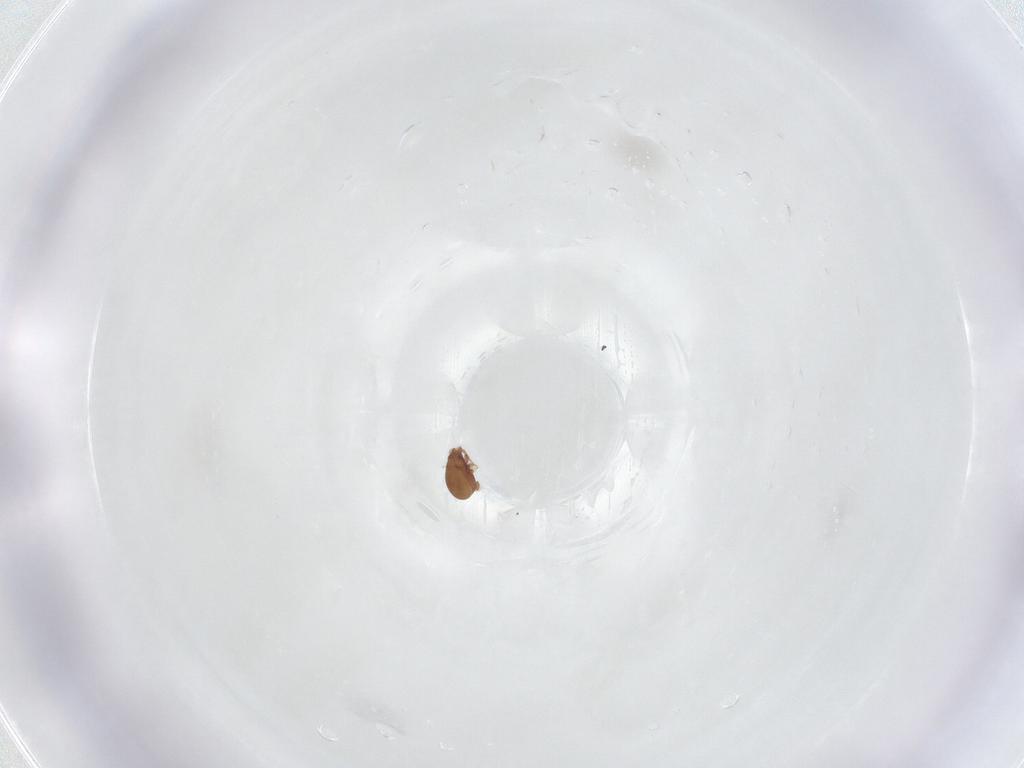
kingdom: Animalia
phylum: Arthropoda
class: Arachnida
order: Sarcoptiformes
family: Scheloribatidae
